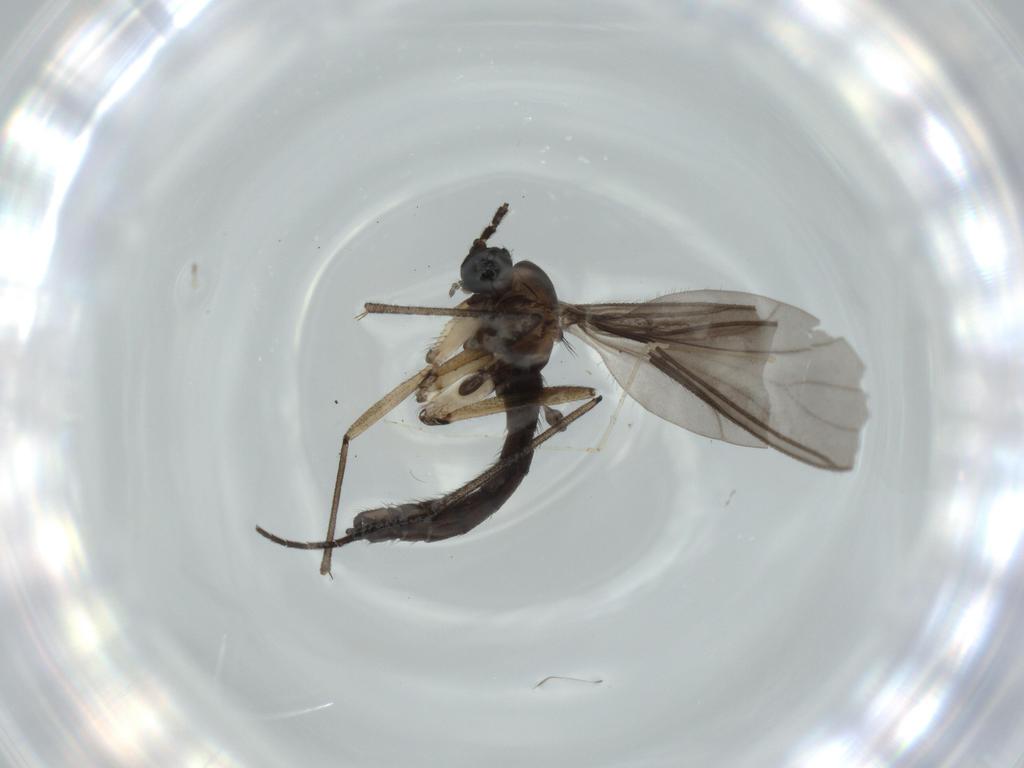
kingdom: Animalia
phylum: Arthropoda
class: Insecta
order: Diptera
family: Sciaridae
